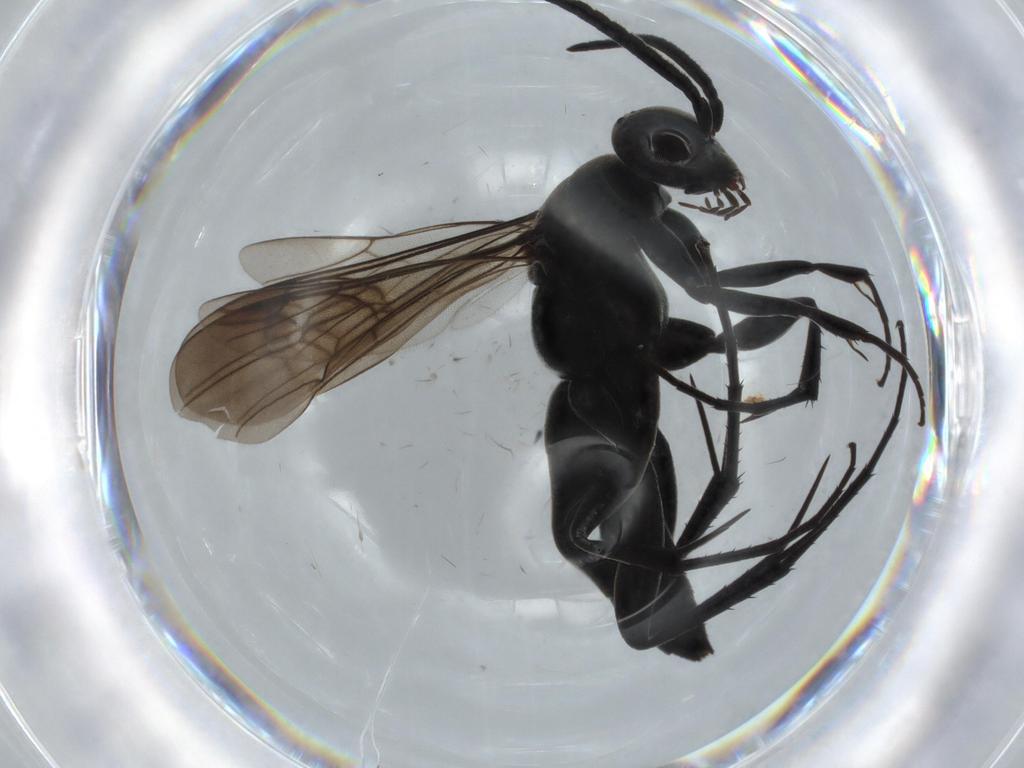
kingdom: Animalia
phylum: Arthropoda
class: Insecta
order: Hymenoptera
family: Pompilidae
